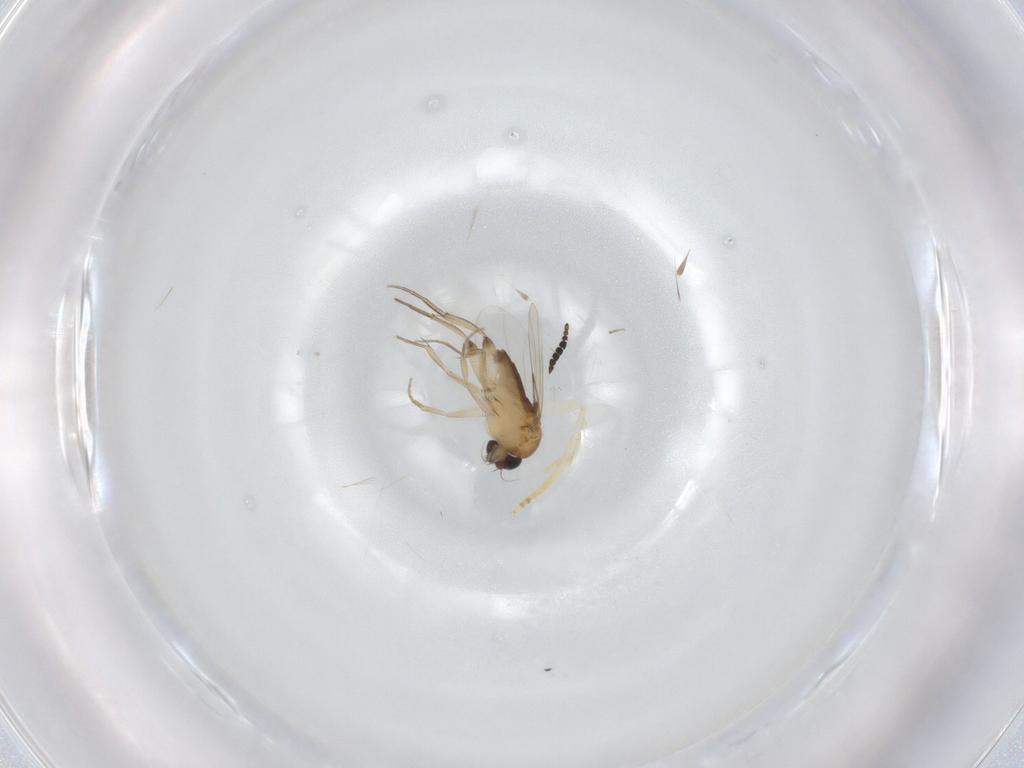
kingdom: Animalia
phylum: Arthropoda
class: Insecta
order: Diptera
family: Phoridae
